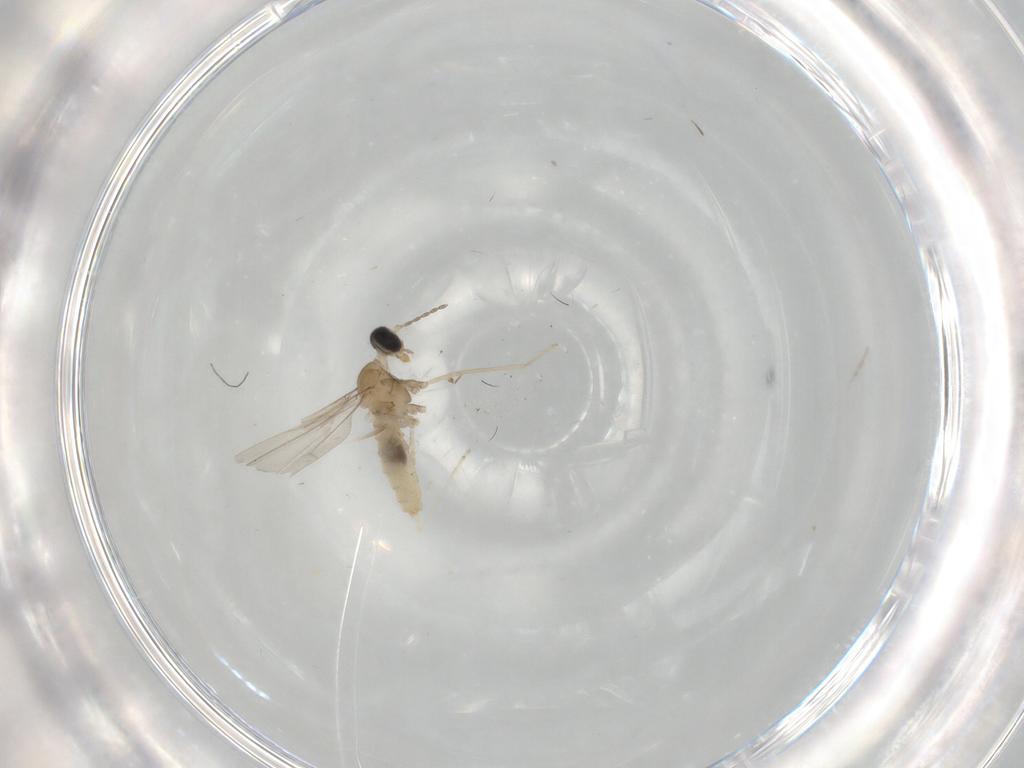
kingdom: Animalia
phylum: Arthropoda
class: Insecta
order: Diptera
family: Cecidomyiidae
